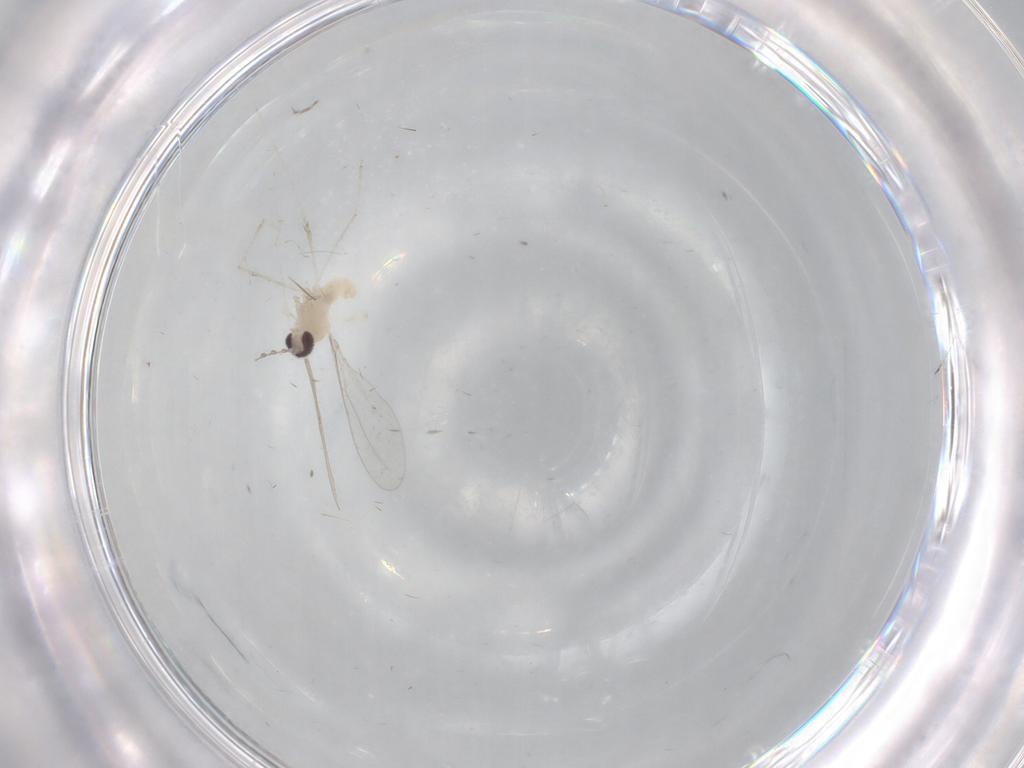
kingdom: Animalia
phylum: Arthropoda
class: Insecta
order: Diptera
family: Cecidomyiidae
